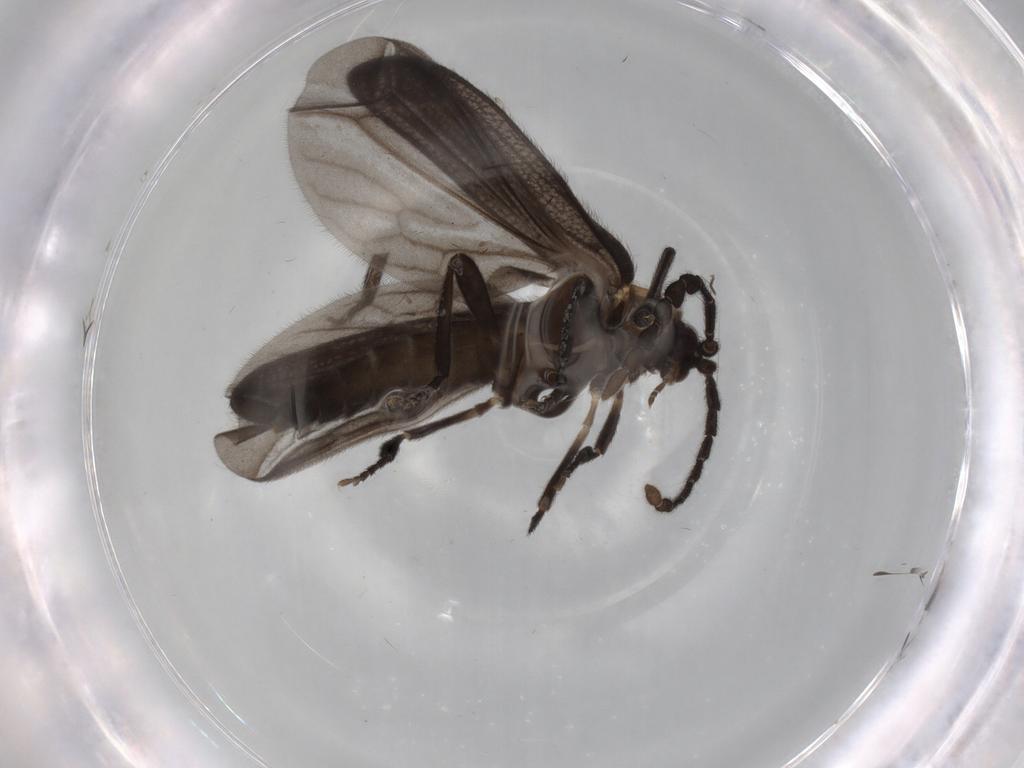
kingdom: Animalia
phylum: Arthropoda
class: Insecta
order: Coleoptera
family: Lycidae
